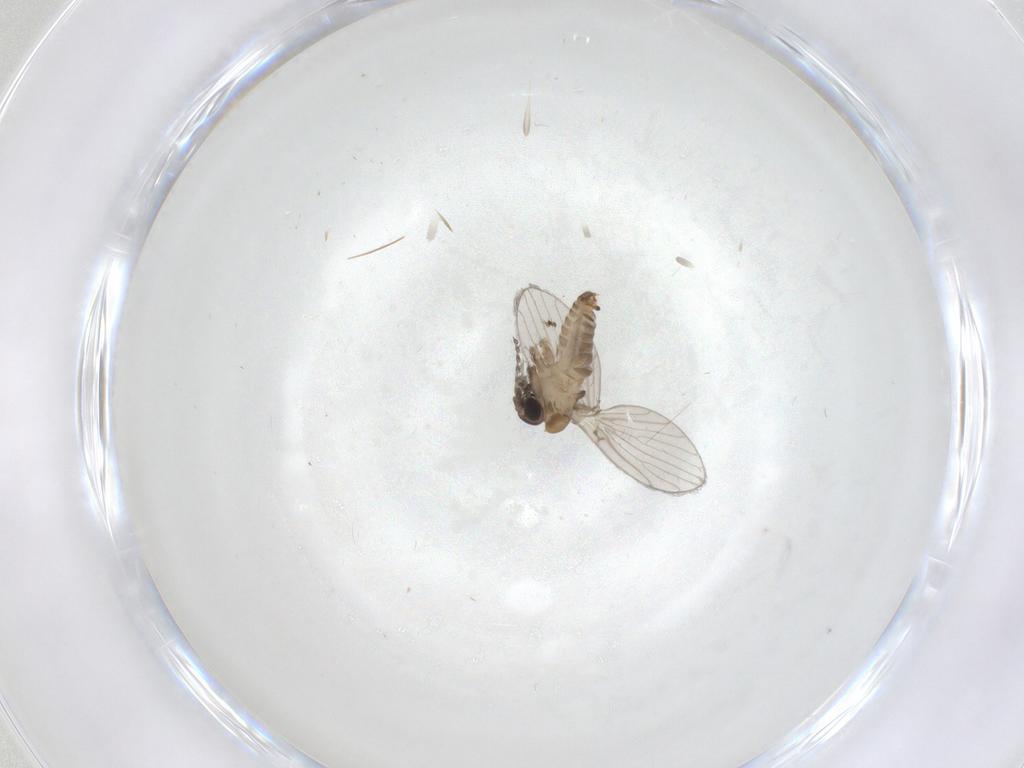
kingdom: Animalia
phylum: Arthropoda
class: Insecta
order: Diptera
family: Psychodidae
